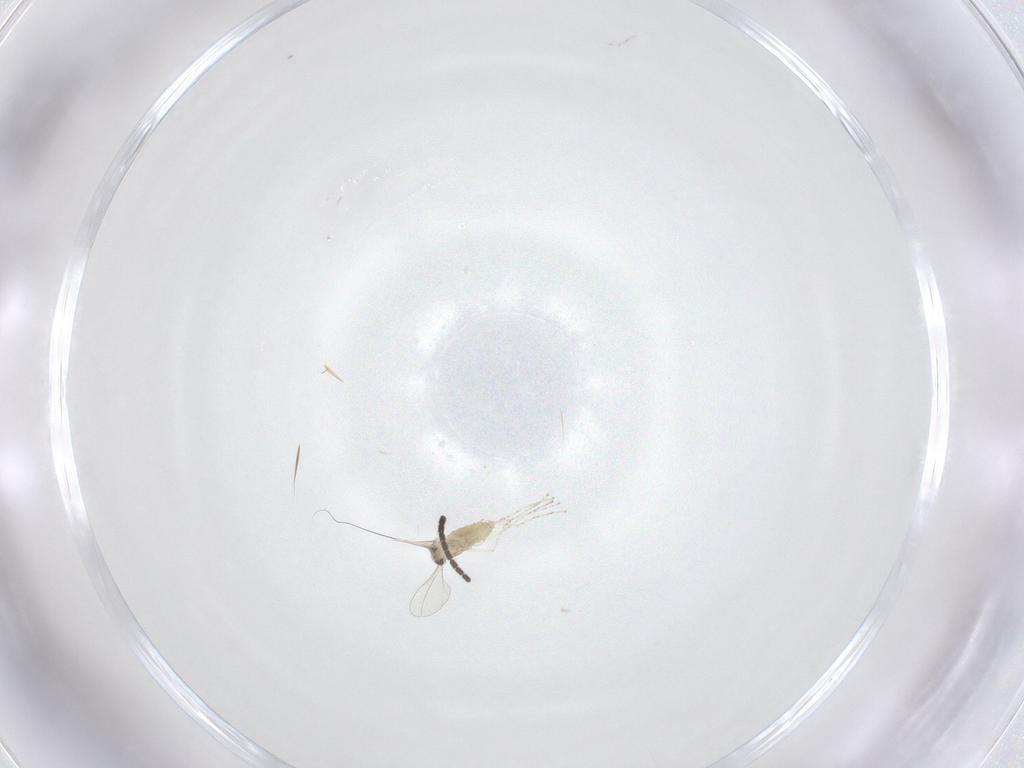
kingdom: Animalia
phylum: Arthropoda
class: Insecta
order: Diptera
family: Cecidomyiidae
